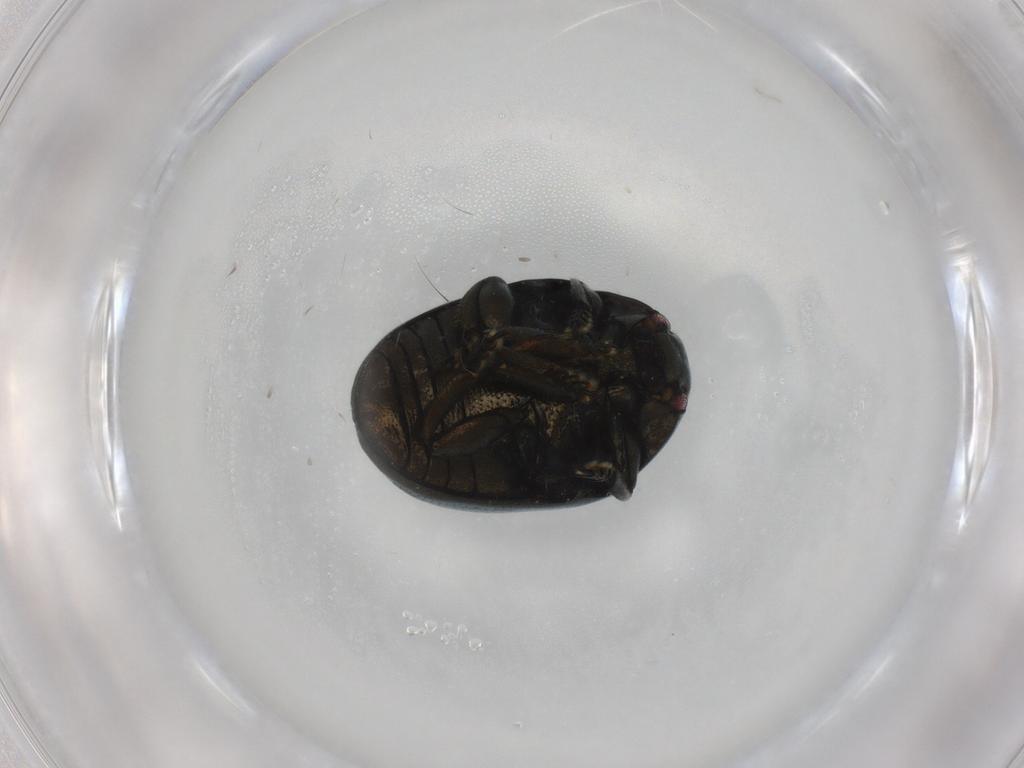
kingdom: Animalia
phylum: Arthropoda
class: Insecta
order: Coleoptera
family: Chrysomelidae
